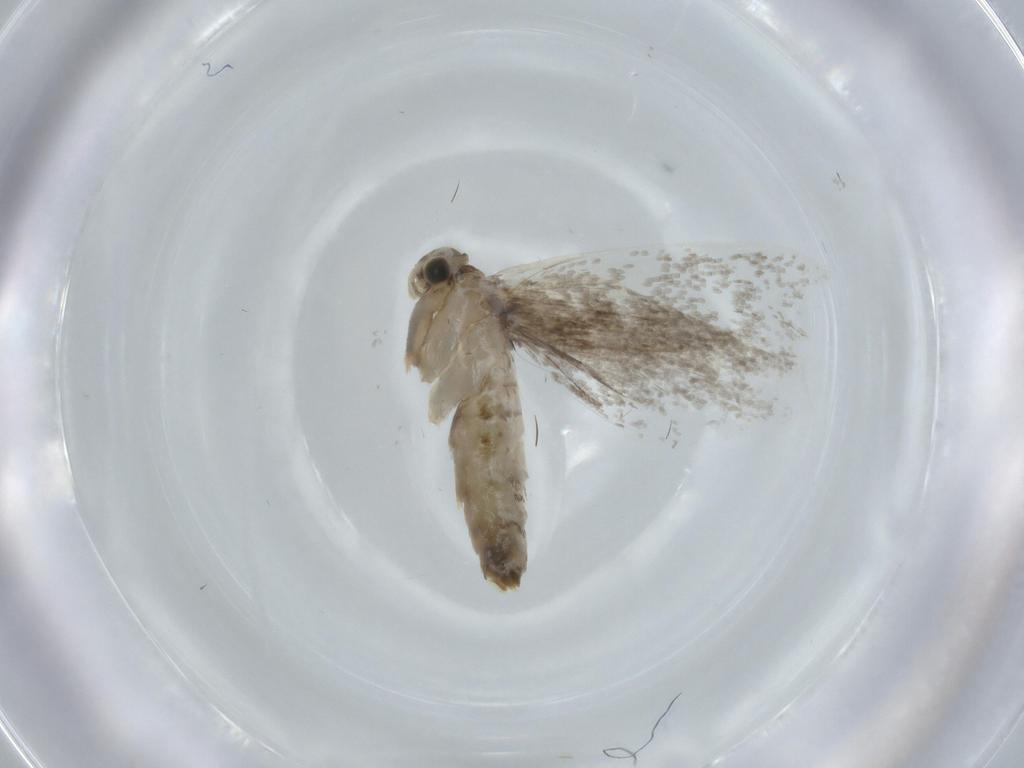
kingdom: Animalia
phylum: Arthropoda
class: Insecta
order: Lepidoptera
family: Tineidae
